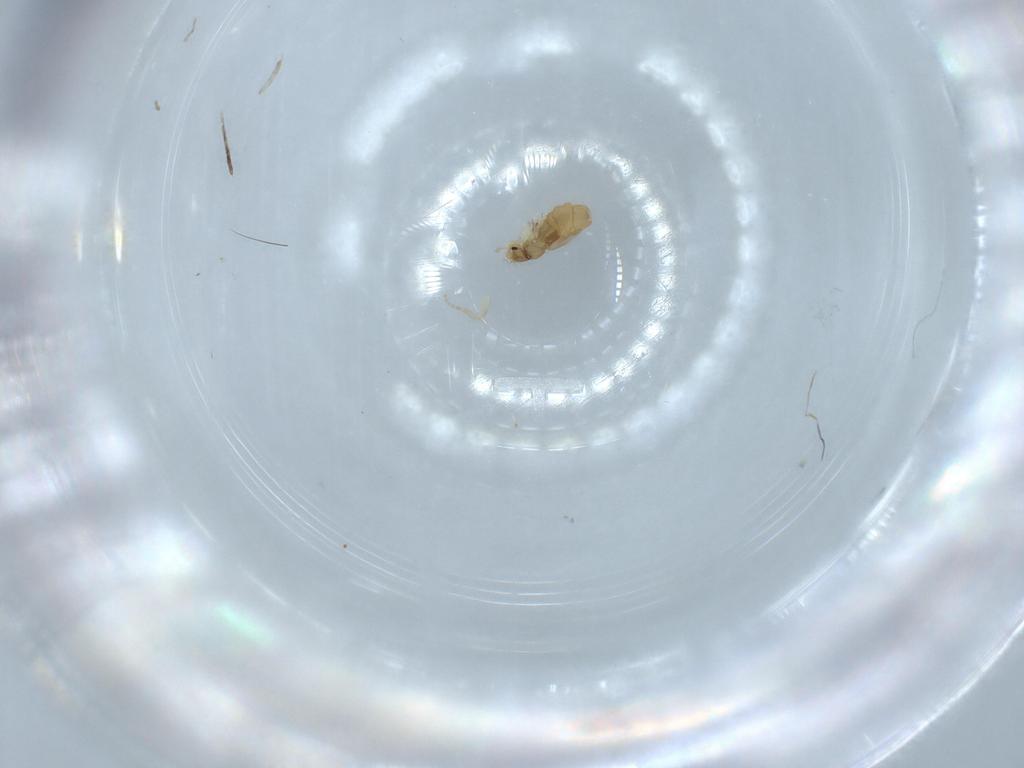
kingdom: Animalia
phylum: Arthropoda
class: Insecta
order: Diptera
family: Phoridae
